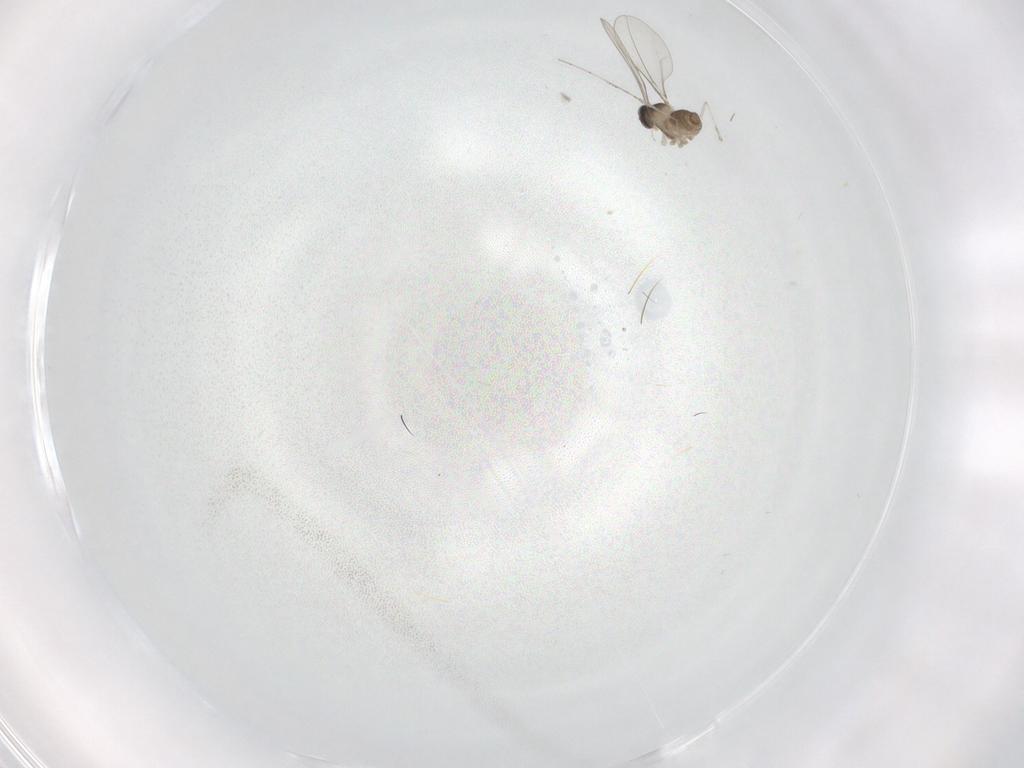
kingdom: Animalia
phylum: Arthropoda
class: Insecta
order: Diptera
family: Cecidomyiidae
